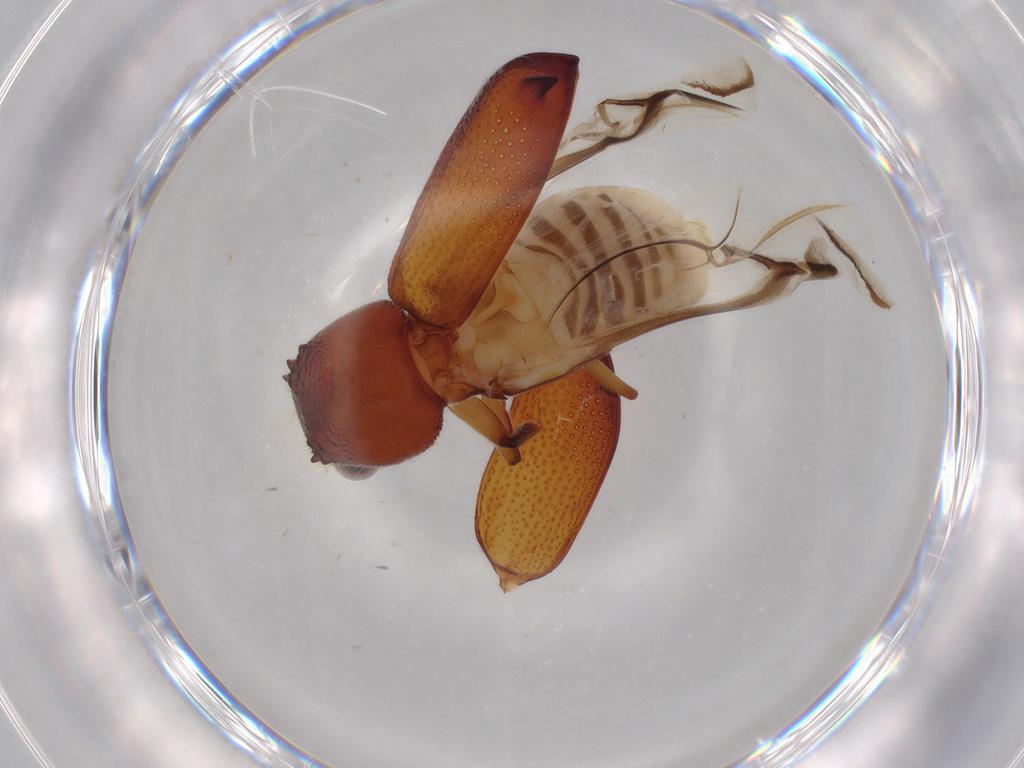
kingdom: Animalia
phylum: Arthropoda
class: Insecta
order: Coleoptera
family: Bostrichidae
